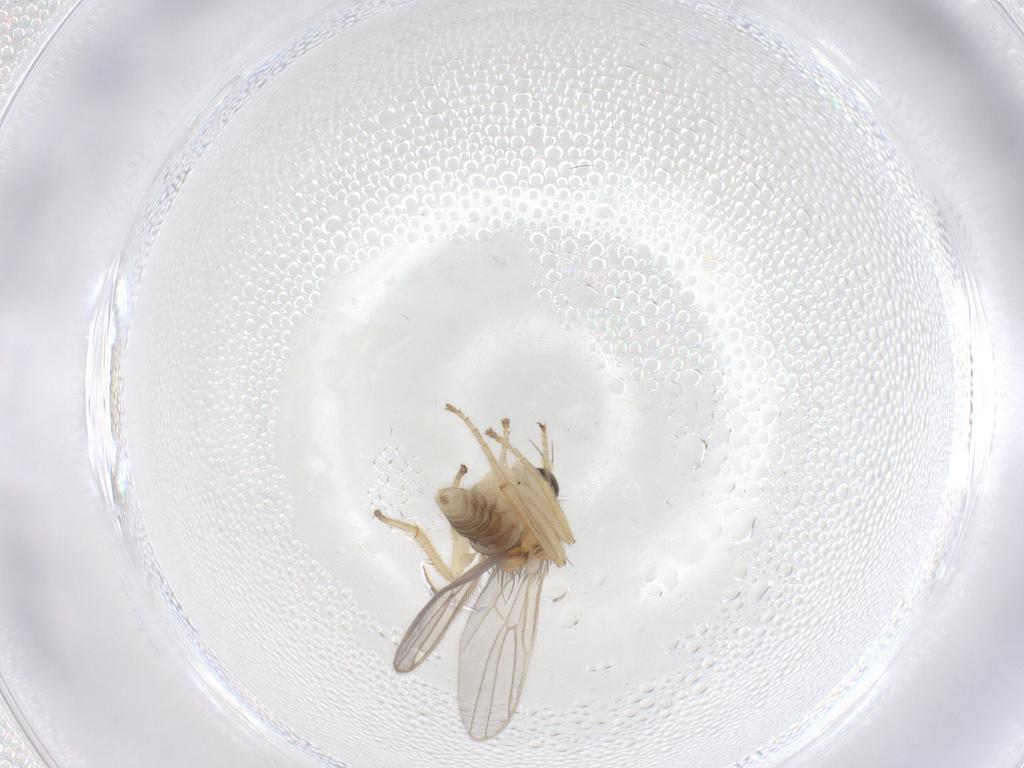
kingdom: Animalia
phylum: Arthropoda
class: Insecta
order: Diptera
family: Hybotidae
